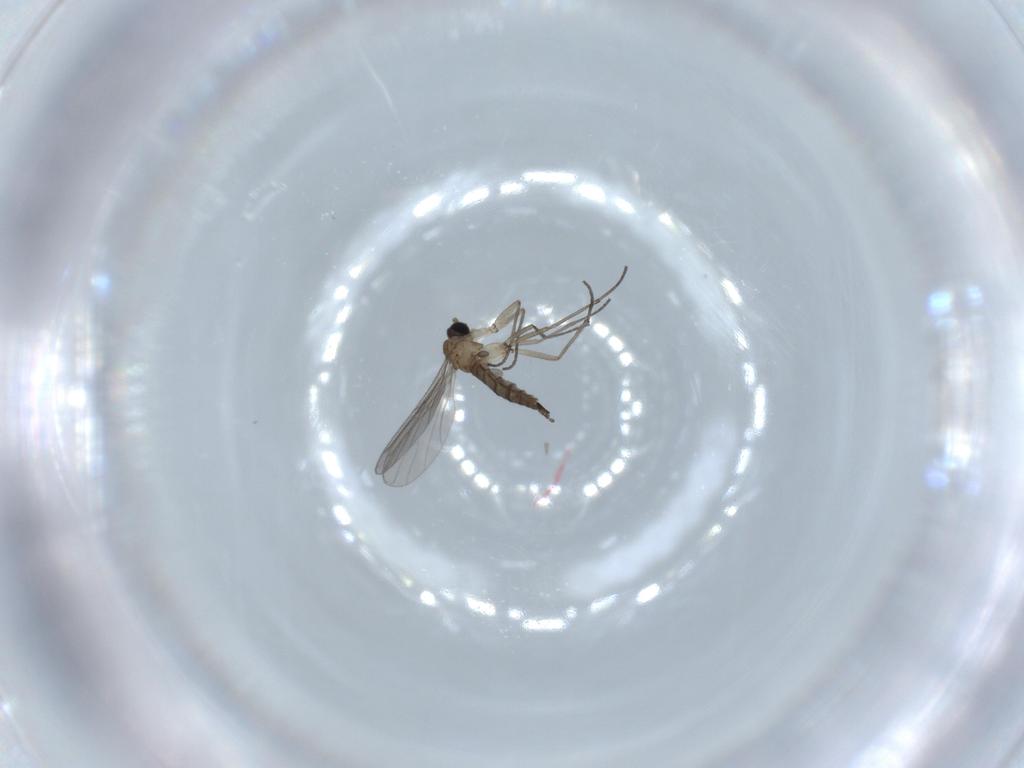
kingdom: Animalia
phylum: Arthropoda
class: Insecta
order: Diptera
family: Sciaridae
